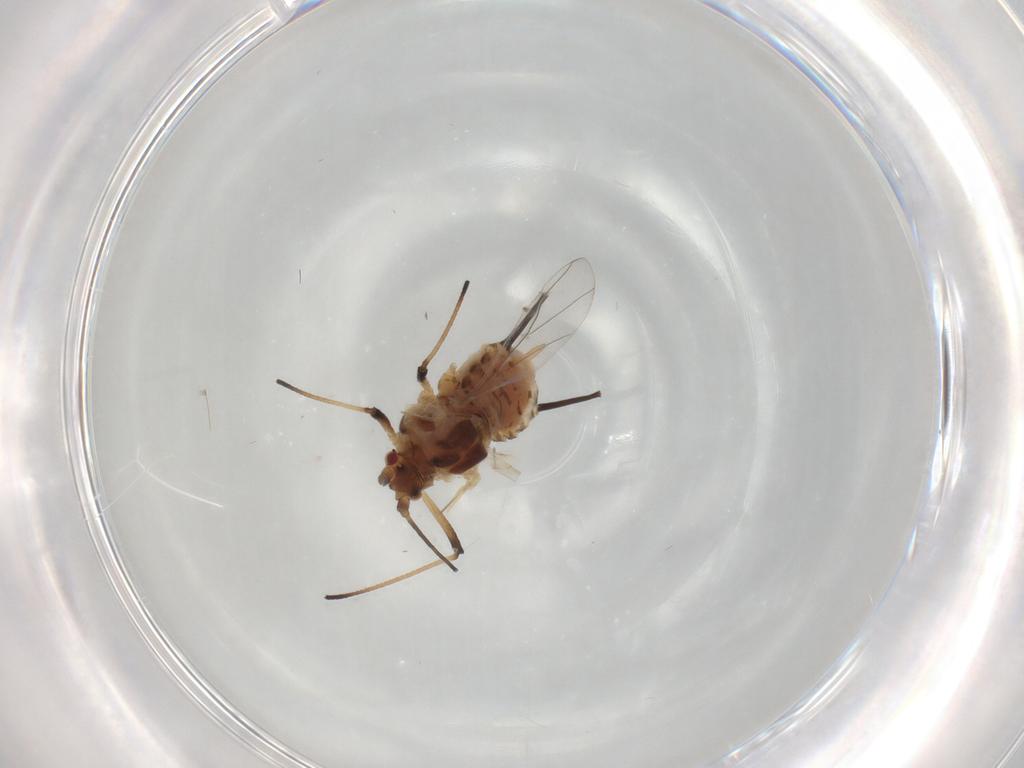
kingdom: Animalia
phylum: Arthropoda
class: Insecta
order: Hemiptera
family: Aphididae
